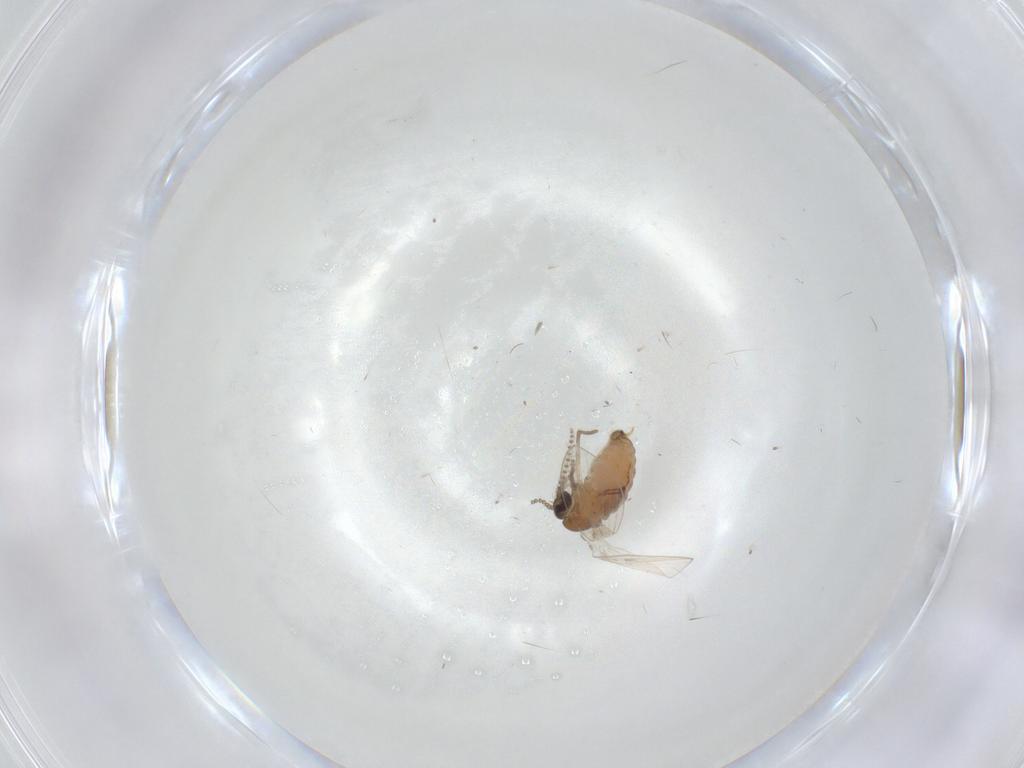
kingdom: Animalia
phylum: Arthropoda
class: Insecta
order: Diptera
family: Psychodidae
